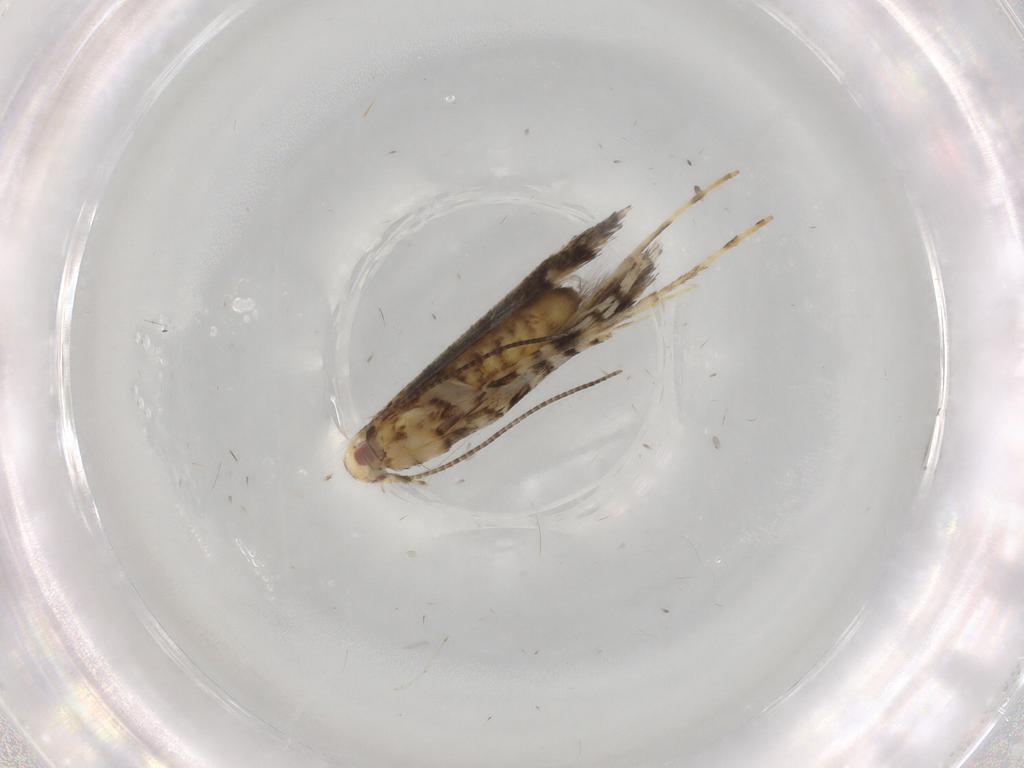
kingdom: Animalia
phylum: Arthropoda
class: Insecta
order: Lepidoptera
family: Gracillariidae
